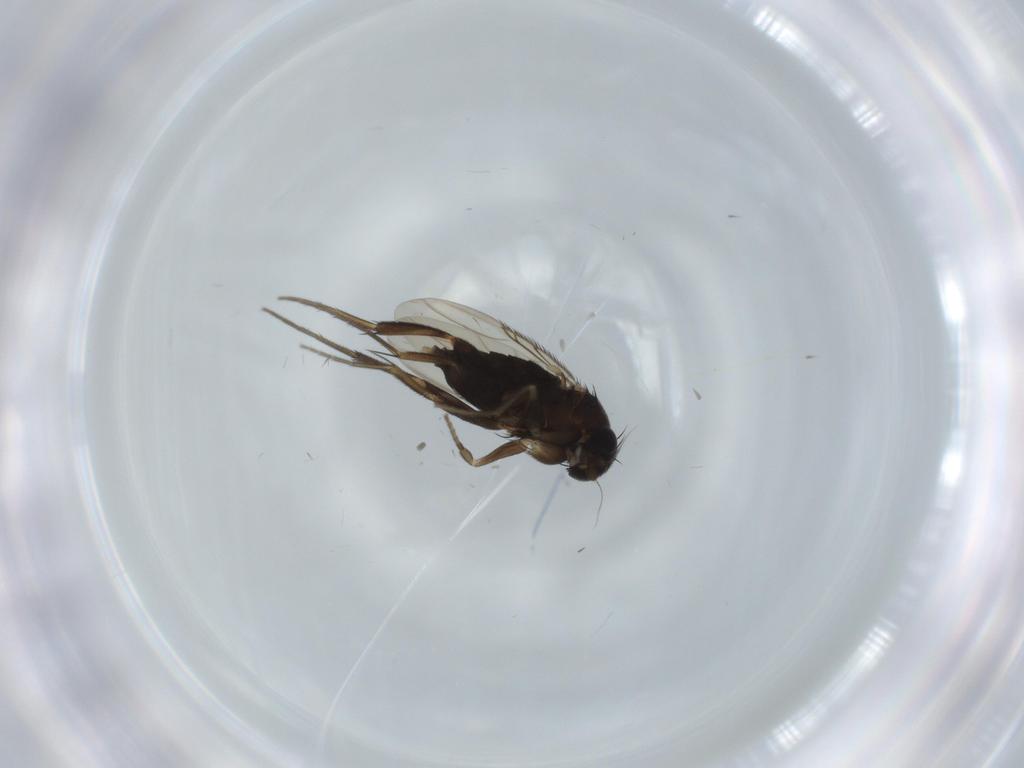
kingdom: Animalia
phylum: Arthropoda
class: Insecta
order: Diptera
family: Phoridae
